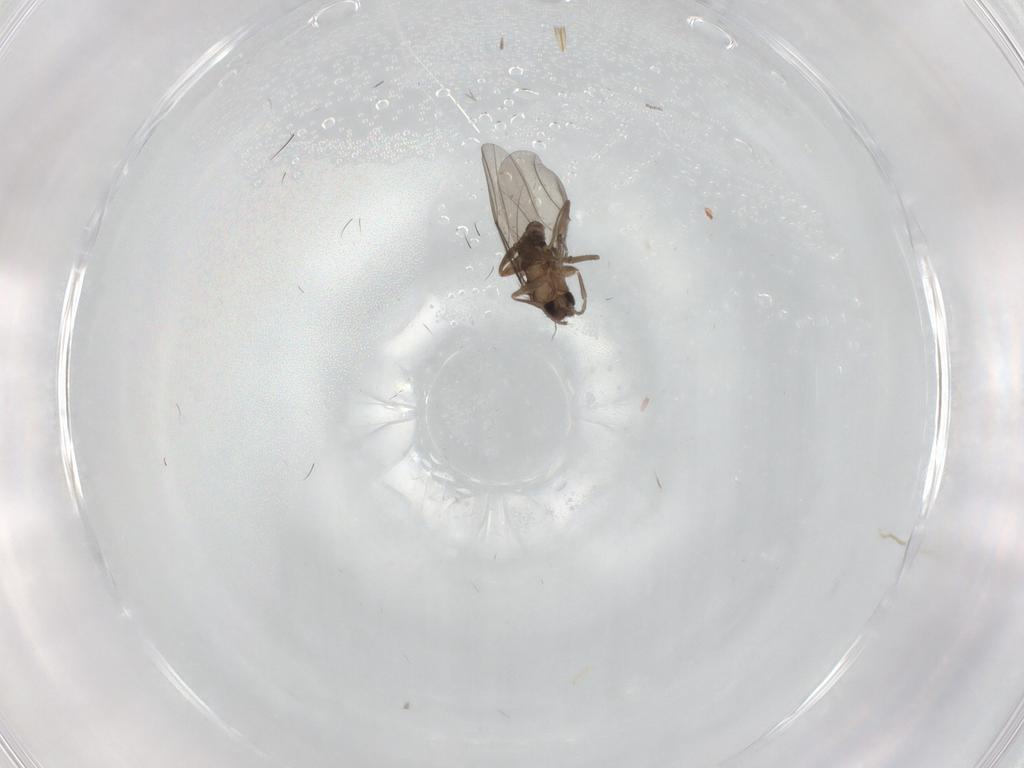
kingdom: Animalia
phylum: Arthropoda
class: Insecta
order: Diptera
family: Phoridae
